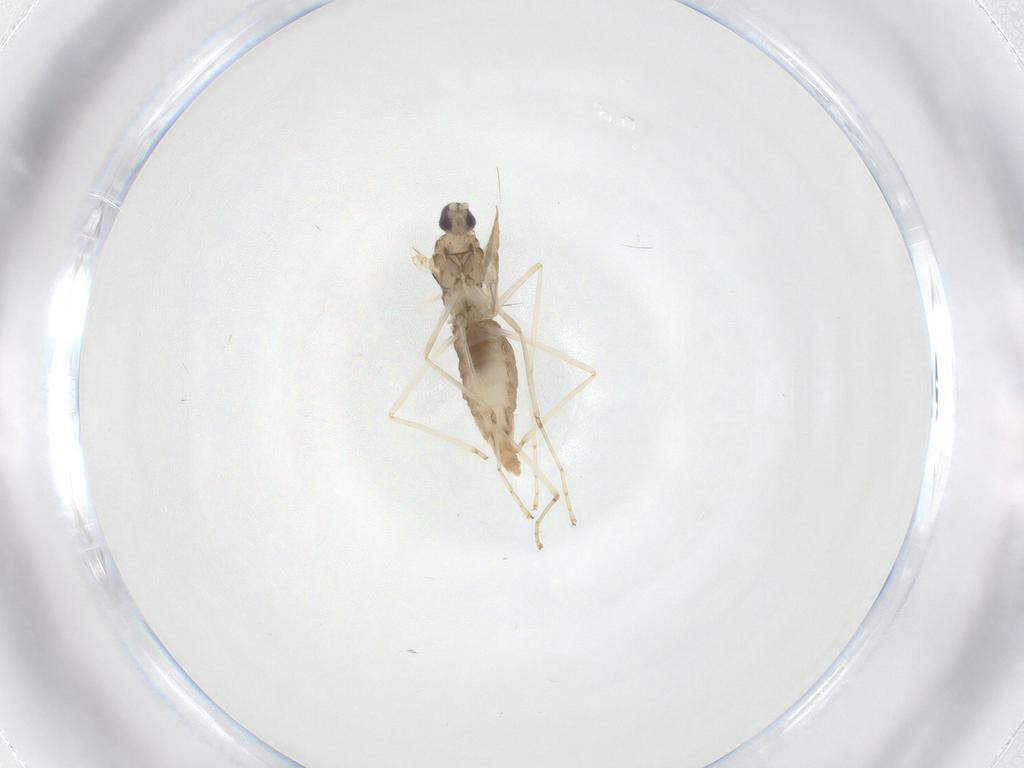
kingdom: Animalia
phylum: Arthropoda
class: Insecta
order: Diptera
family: Cecidomyiidae
